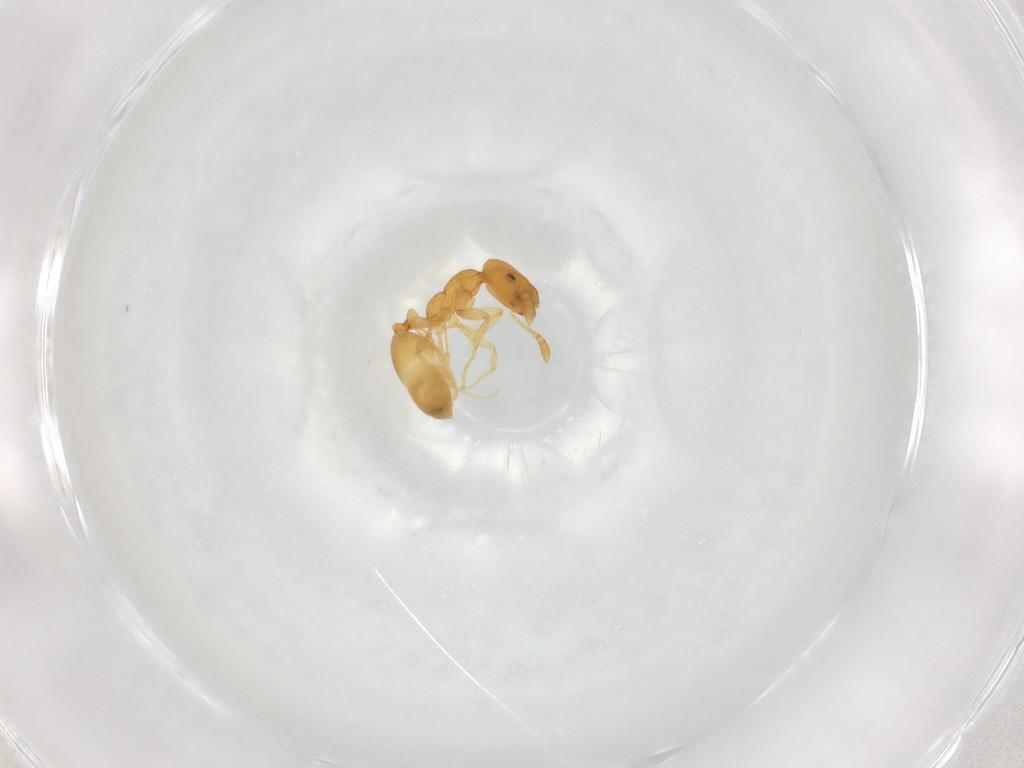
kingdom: Animalia
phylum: Arthropoda
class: Insecta
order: Hymenoptera
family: Formicidae
